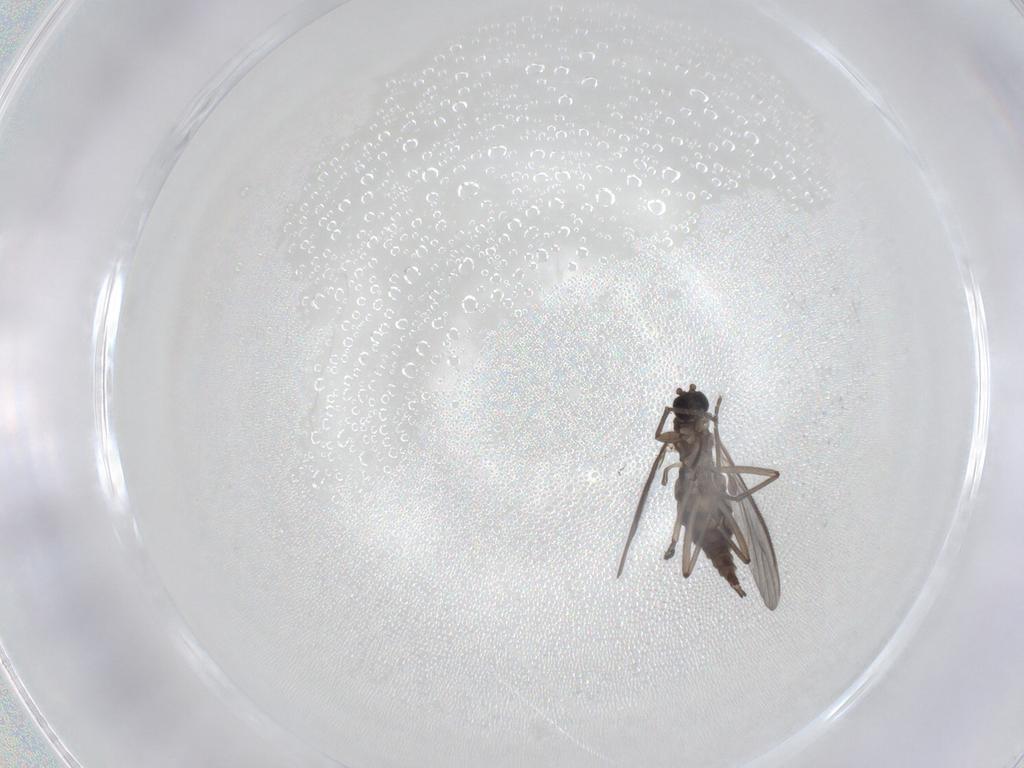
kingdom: Animalia
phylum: Arthropoda
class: Insecta
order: Diptera
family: Sciaridae
